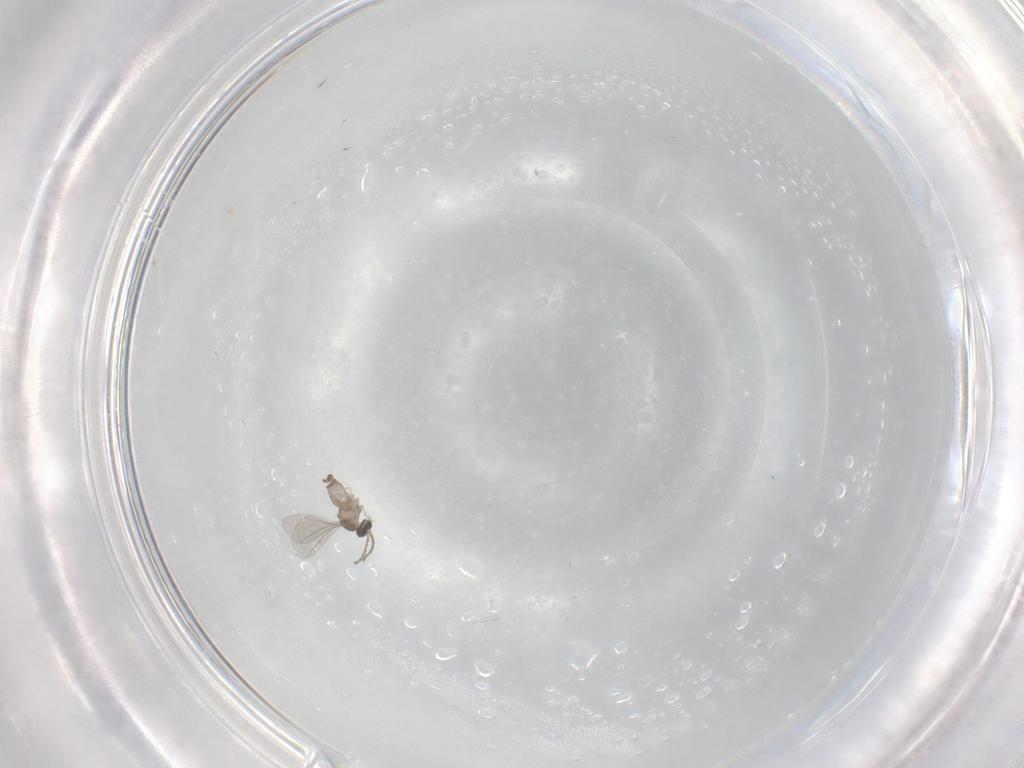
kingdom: Animalia
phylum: Arthropoda
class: Insecta
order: Diptera
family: Cecidomyiidae
